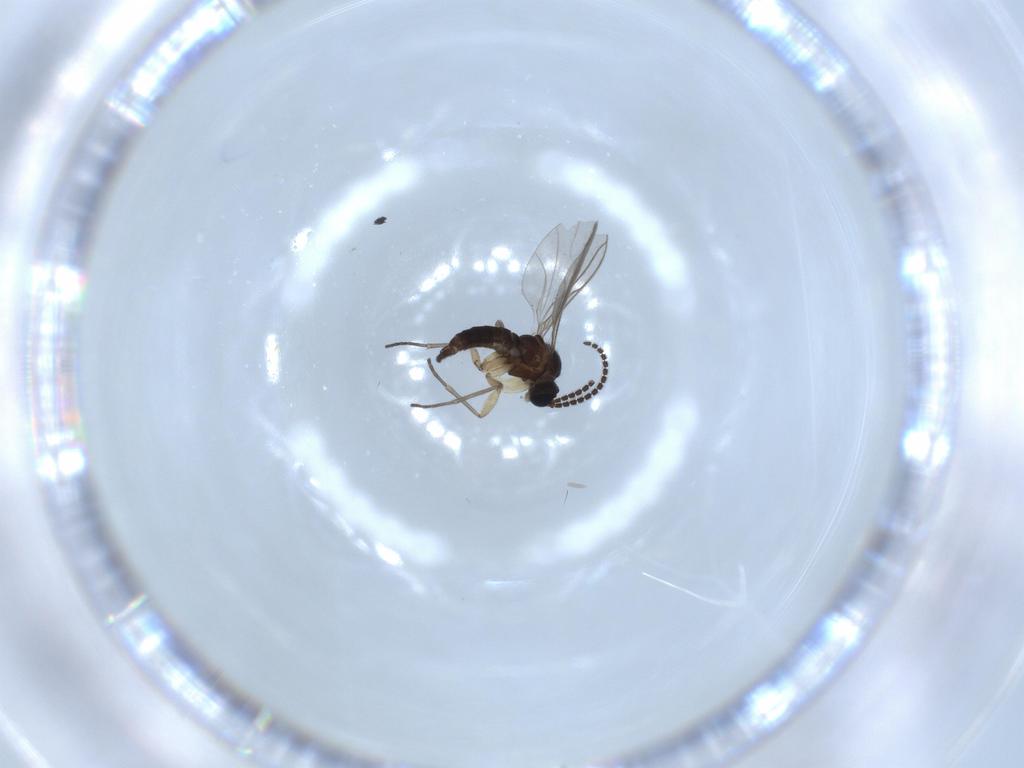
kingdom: Animalia
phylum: Arthropoda
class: Insecta
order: Diptera
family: Sciaridae
